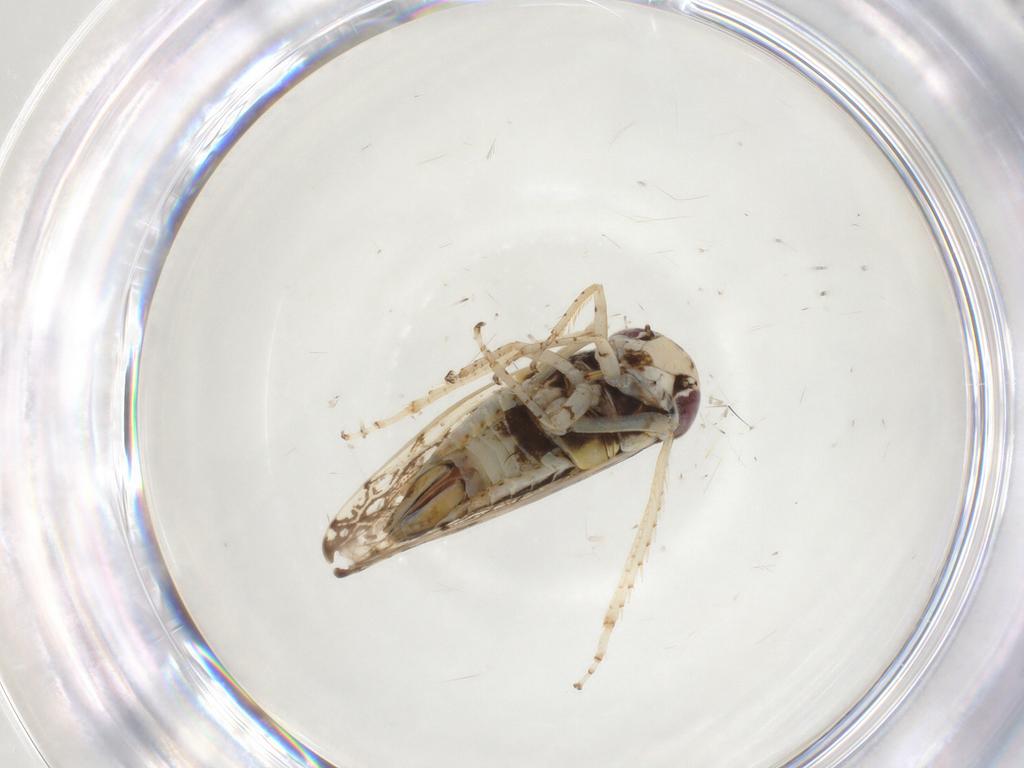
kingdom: Animalia
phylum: Arthropoda
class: Insecta
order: Hemiptera
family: Cicadellidae
